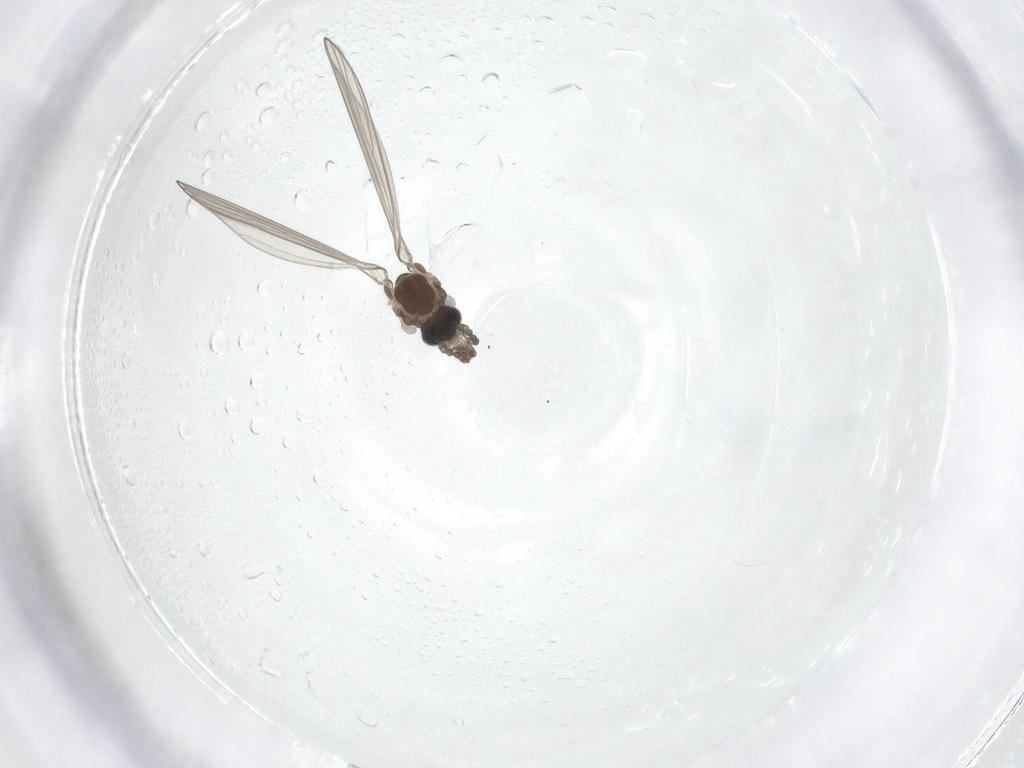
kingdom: Animalia
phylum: Arthropoda
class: Insecta
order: Diptera
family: Psychodidae
